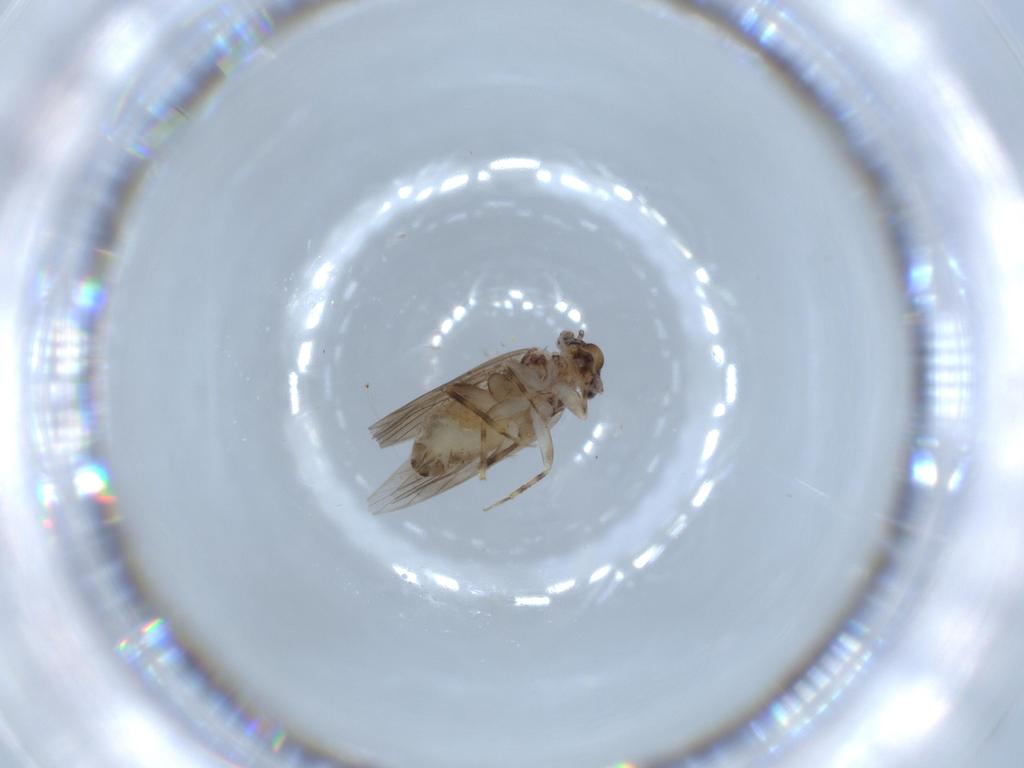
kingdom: Animalia
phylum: Arthropoda
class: Insecta
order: Psocodea
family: Lepidopsocidae
